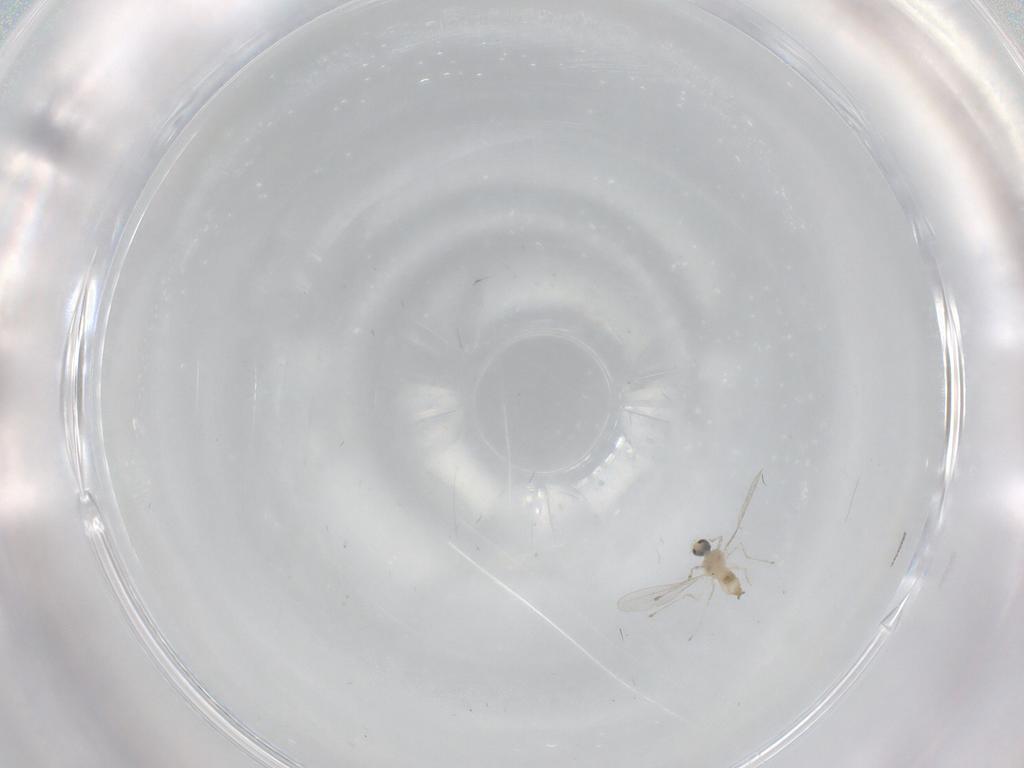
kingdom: Animalia
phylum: Arthropoda
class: Insecta
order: Diptera
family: Cecidomyiidae
